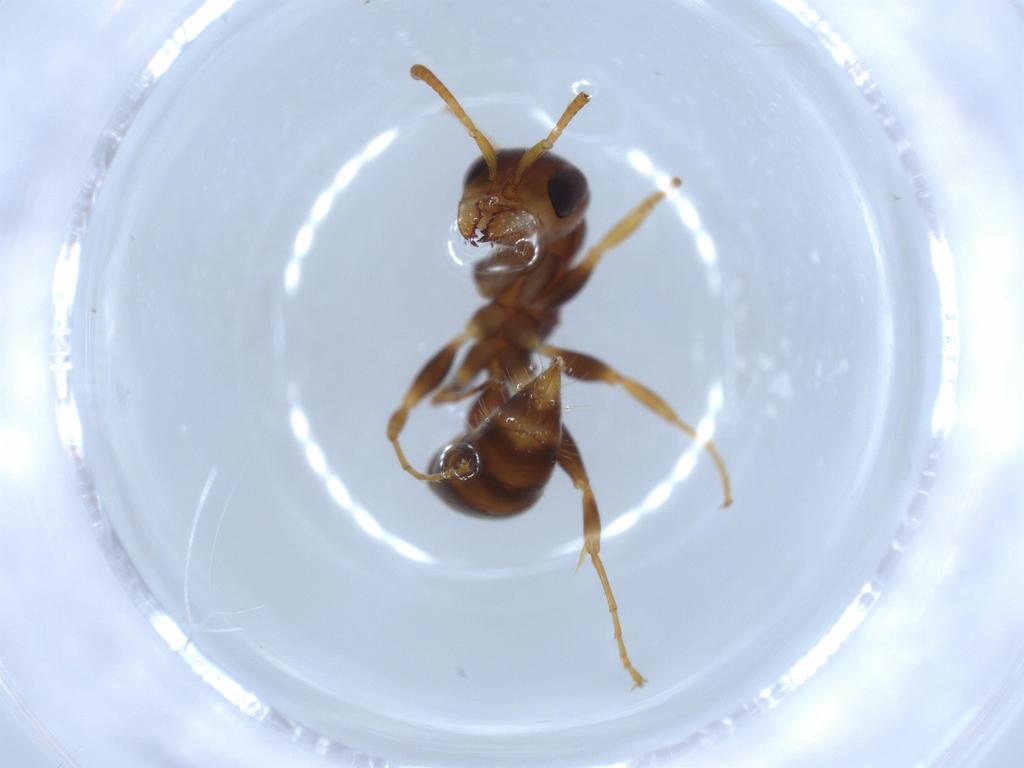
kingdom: Animalia
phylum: Arthropoda
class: Insecta
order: Hymenoptera
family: Formicidae
